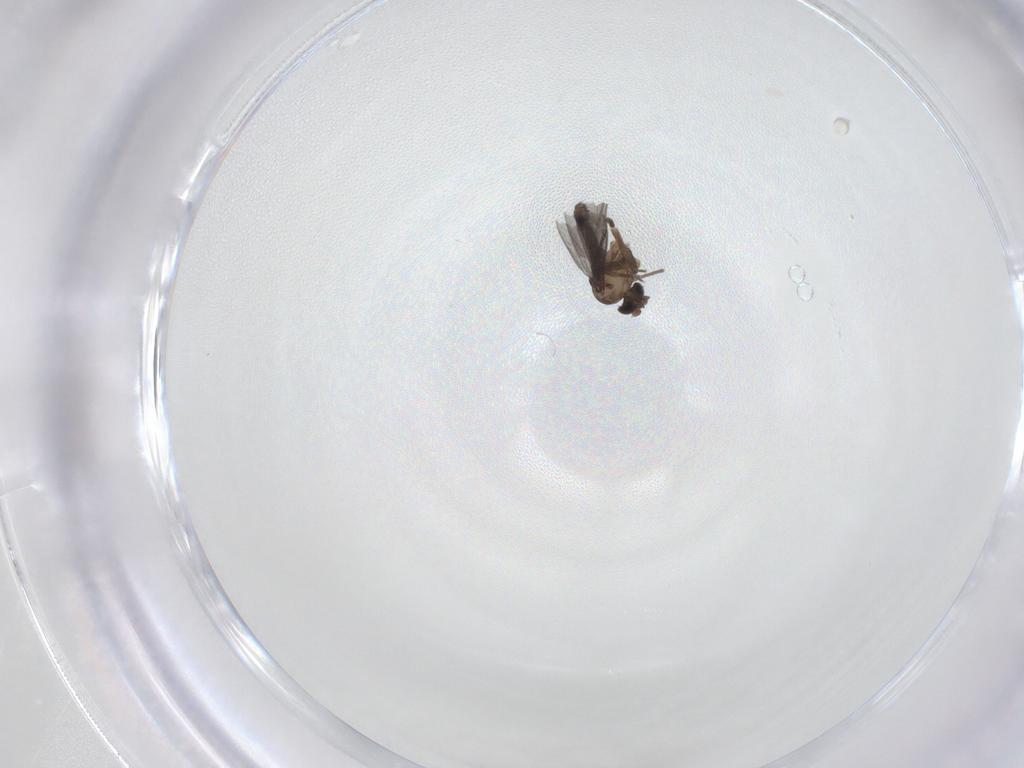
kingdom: Animalia
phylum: Arthropoda
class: Insecta
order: Diptera
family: Phoridae
